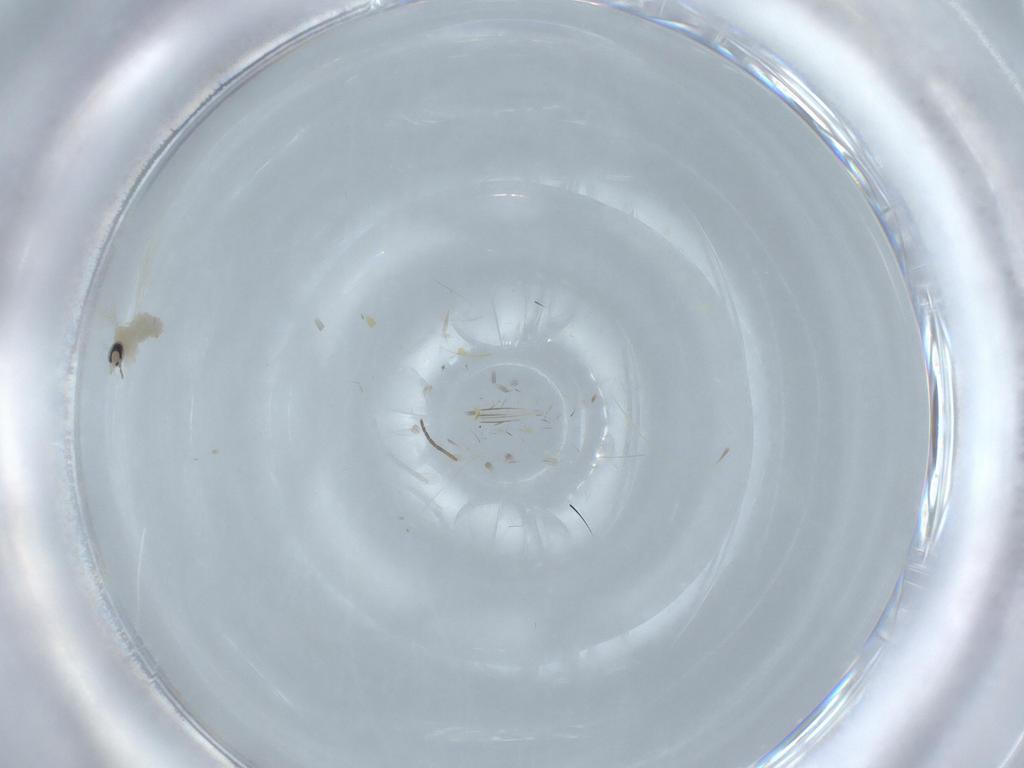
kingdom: Animalia
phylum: Arthropoda
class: Insecta
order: Diptera
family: Cecidomyiidae
